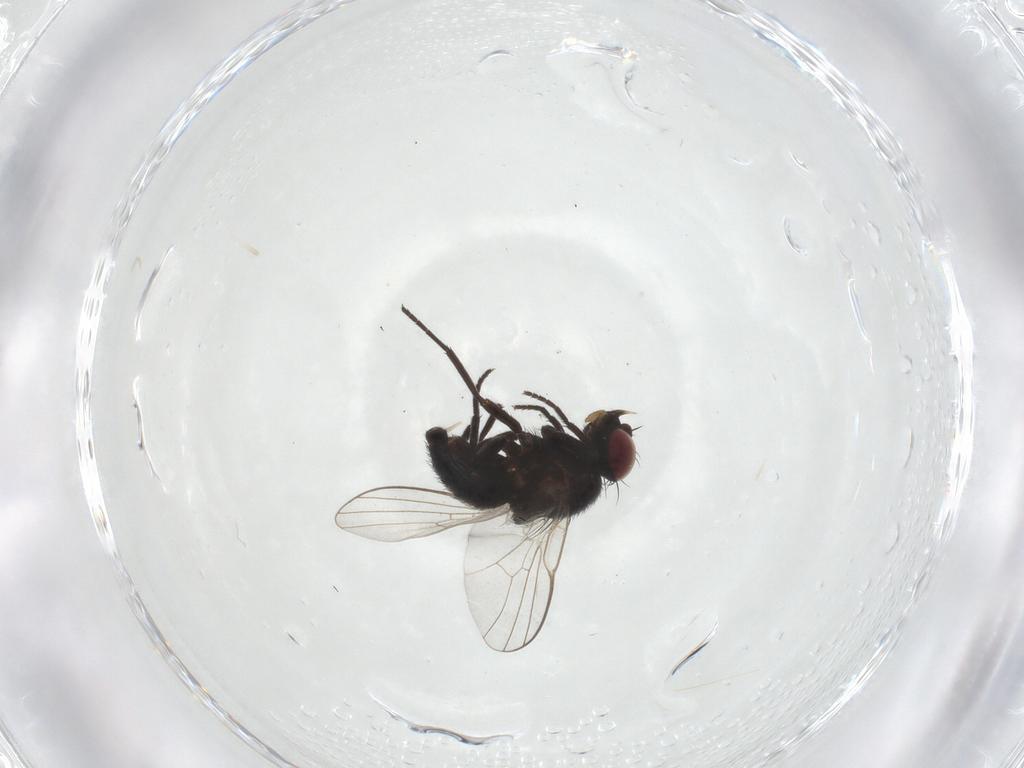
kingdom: Animalia
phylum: Arthropoda
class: Insecta
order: Diptera
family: Agromyzidae
